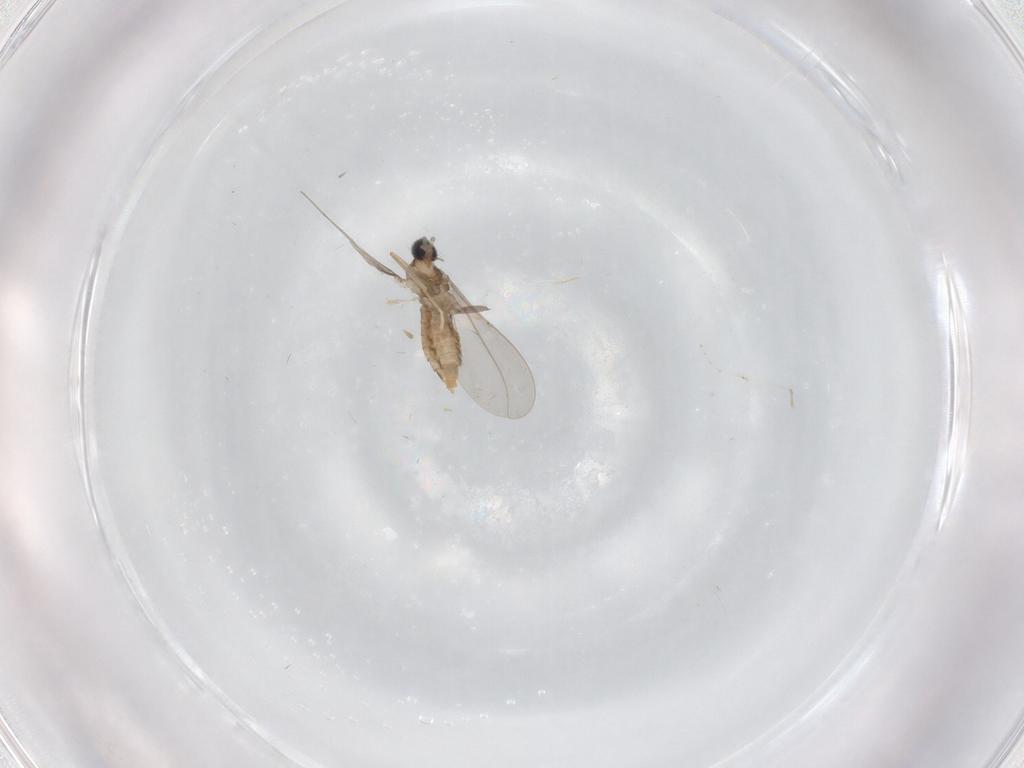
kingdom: Animalia
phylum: Arthropoda
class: Insecta
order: Diptera
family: Cecidomyiidae
